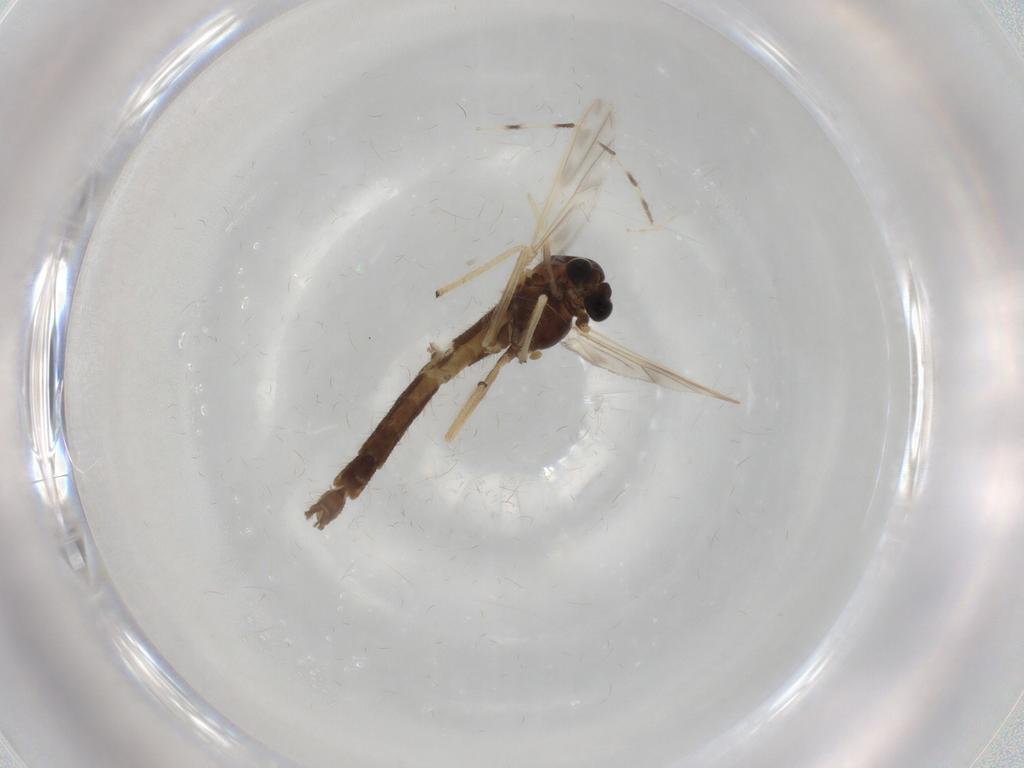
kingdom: Animalia
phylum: Arthropoda
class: Insecta
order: Diptera
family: Chironomidae
